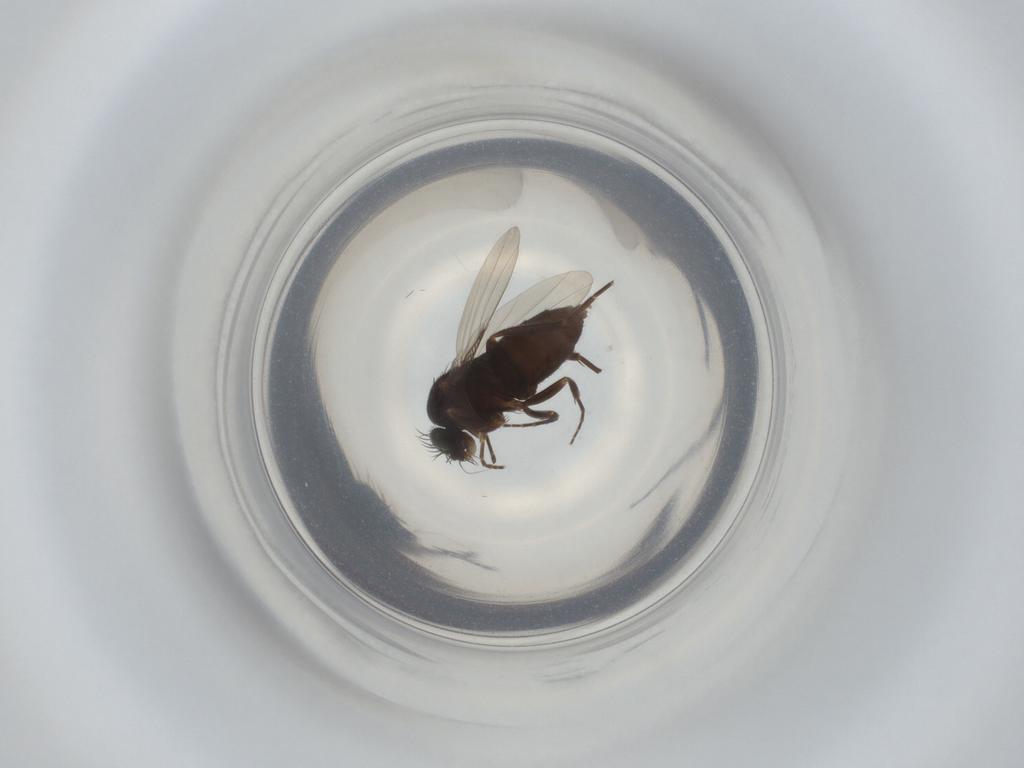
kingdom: Animalia
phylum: Arthropoda
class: Insecta
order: Diptera
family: Phoridae
